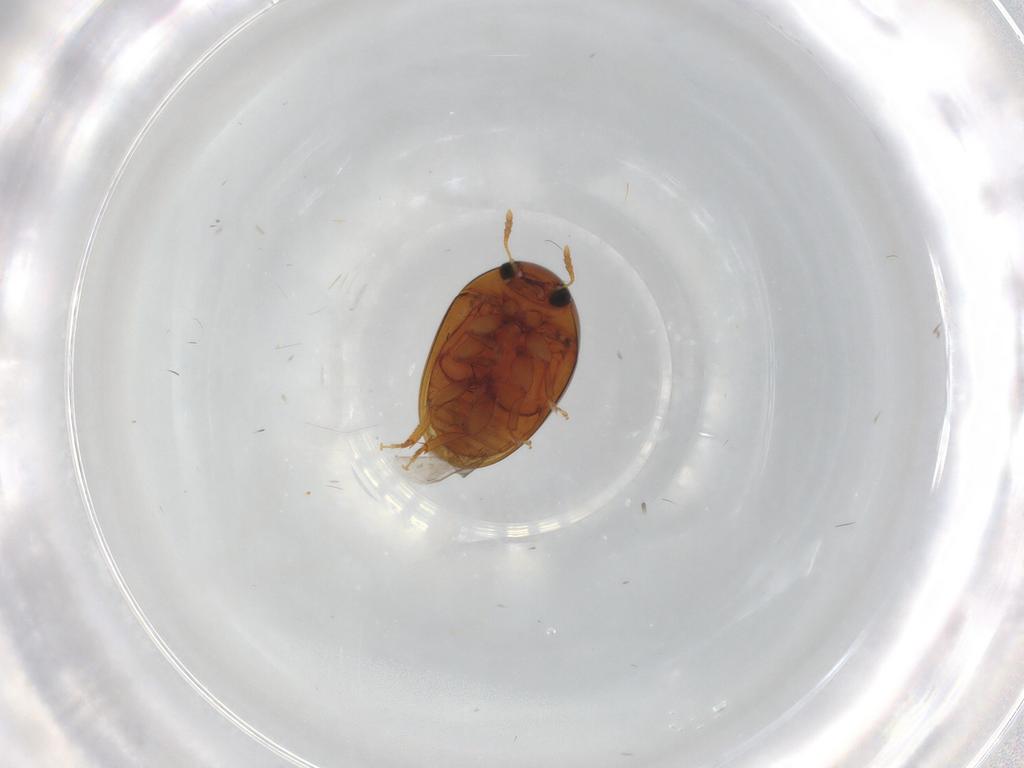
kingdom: Animalia
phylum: Arthropoda
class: Insecta
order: Coleoptera
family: Phalacridae
